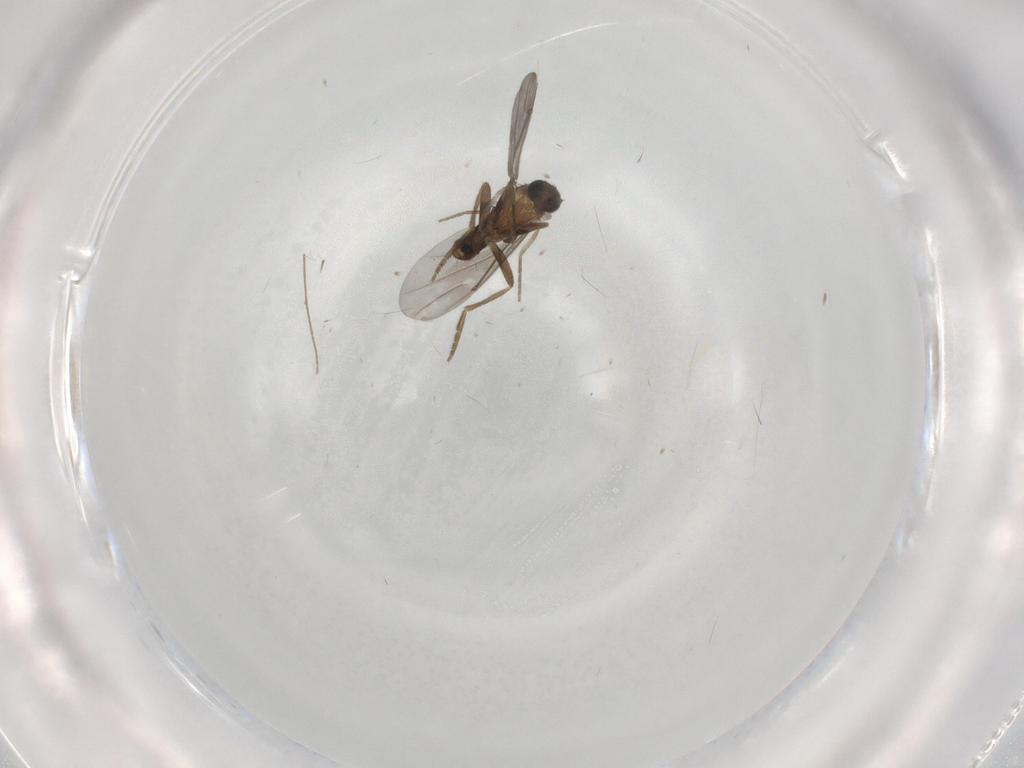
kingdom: Animalia
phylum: Arthropoda
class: Insecta
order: Diptera
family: Phoridae
